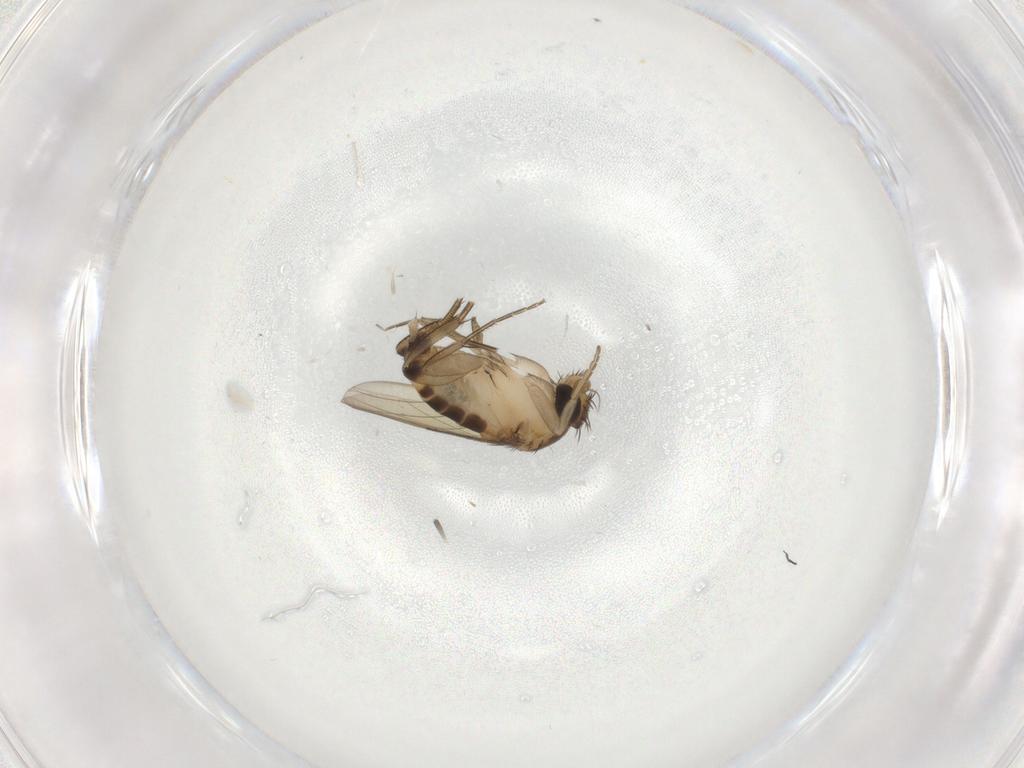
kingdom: Animalia
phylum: Arthropoda
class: Insecta
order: Diptera
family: Phoridae
